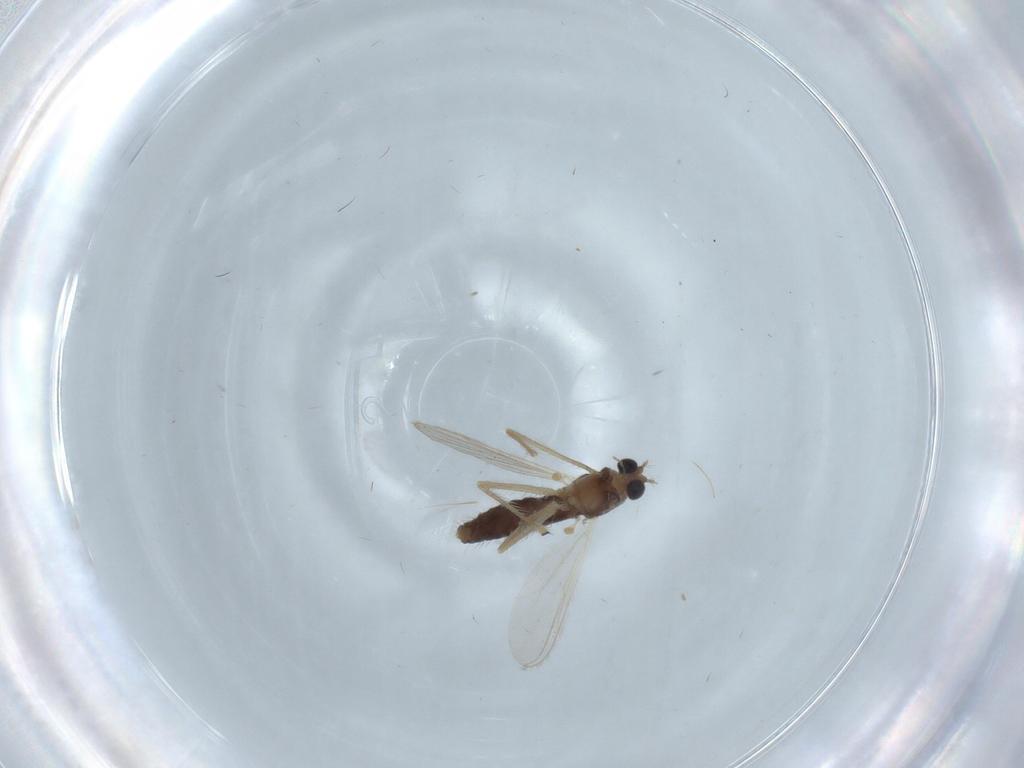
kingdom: Animalia
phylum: Arthropoda
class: Insecta
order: Diptera
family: Chironomidae
